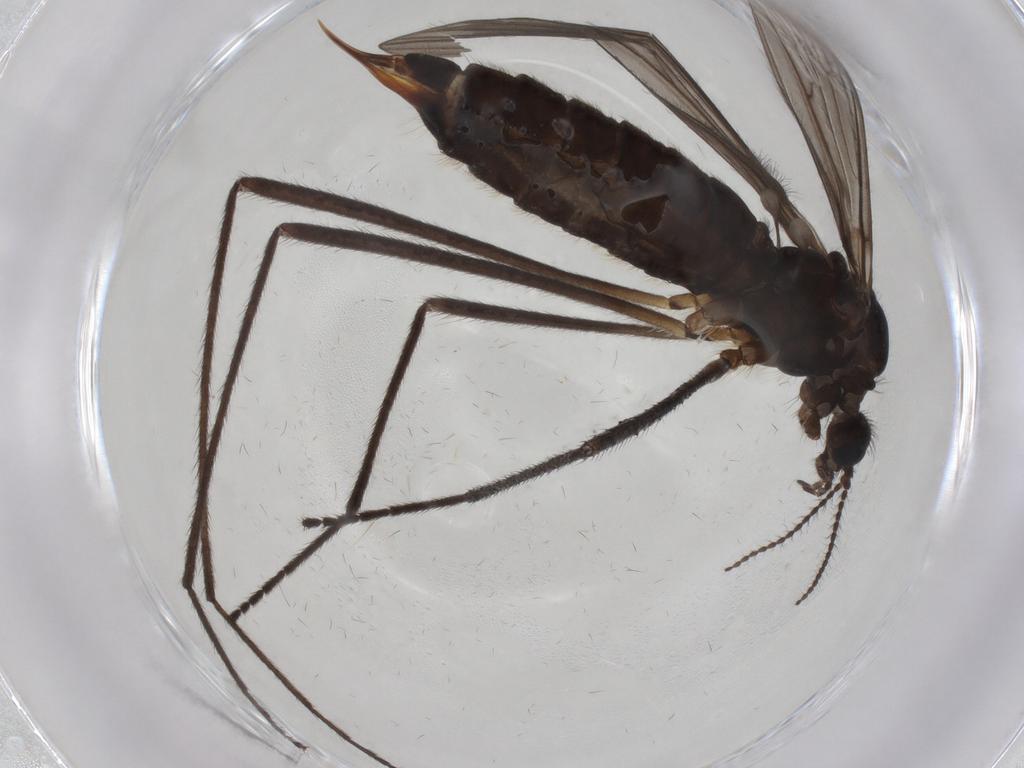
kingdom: Animalia
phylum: Arthropoda
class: Insecta
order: Diptera
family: Limoniidae
